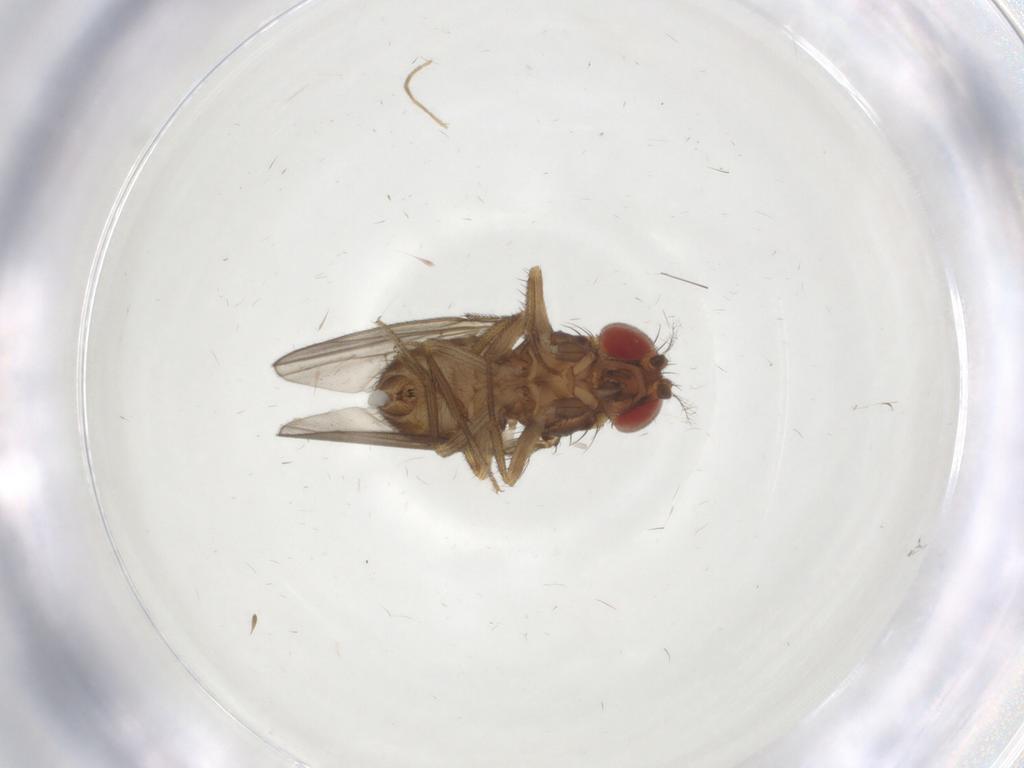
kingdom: Animalia
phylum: Arthropoda
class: Insecta
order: Diptera
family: Drosophilidae
